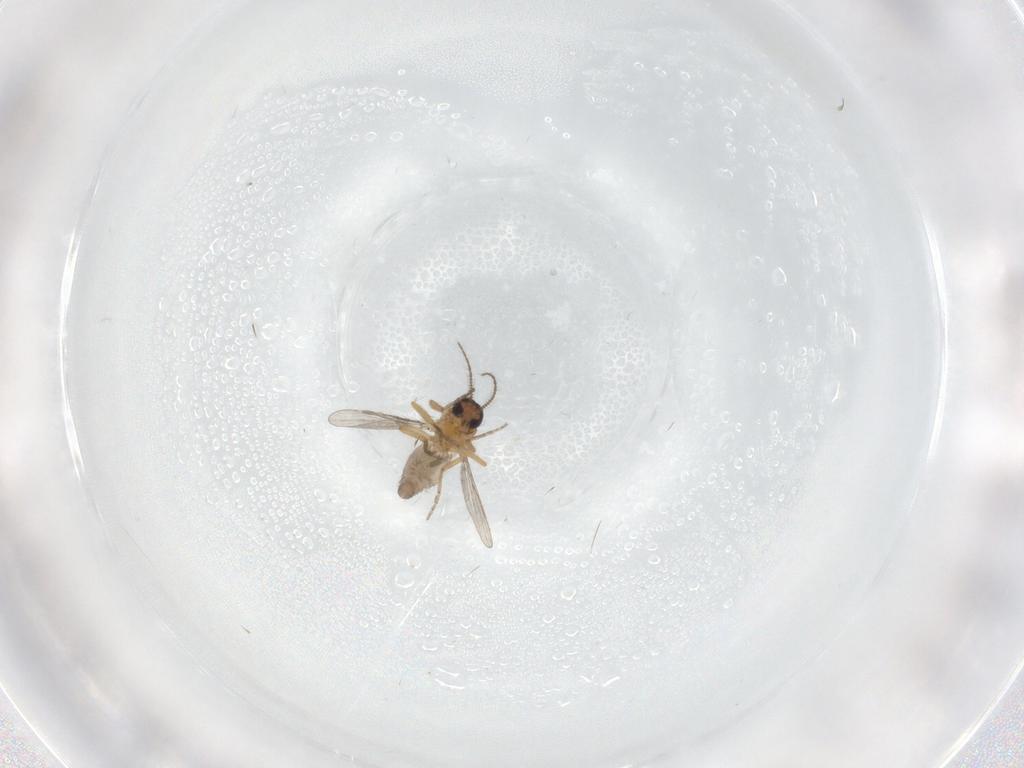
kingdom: Animalia
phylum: Arthropoda
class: Insecta
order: Diptera
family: Ceratopogonidae
